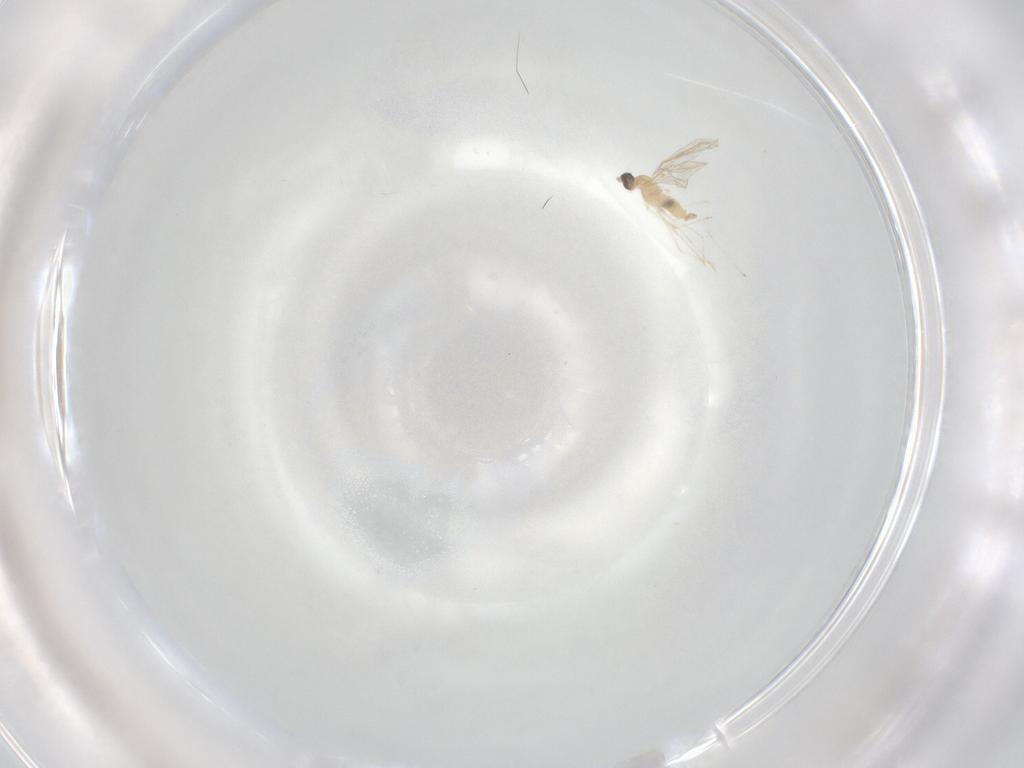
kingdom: Animalia
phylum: Arthropoda
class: Insecta
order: Diptera
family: Cecidomyiidae
